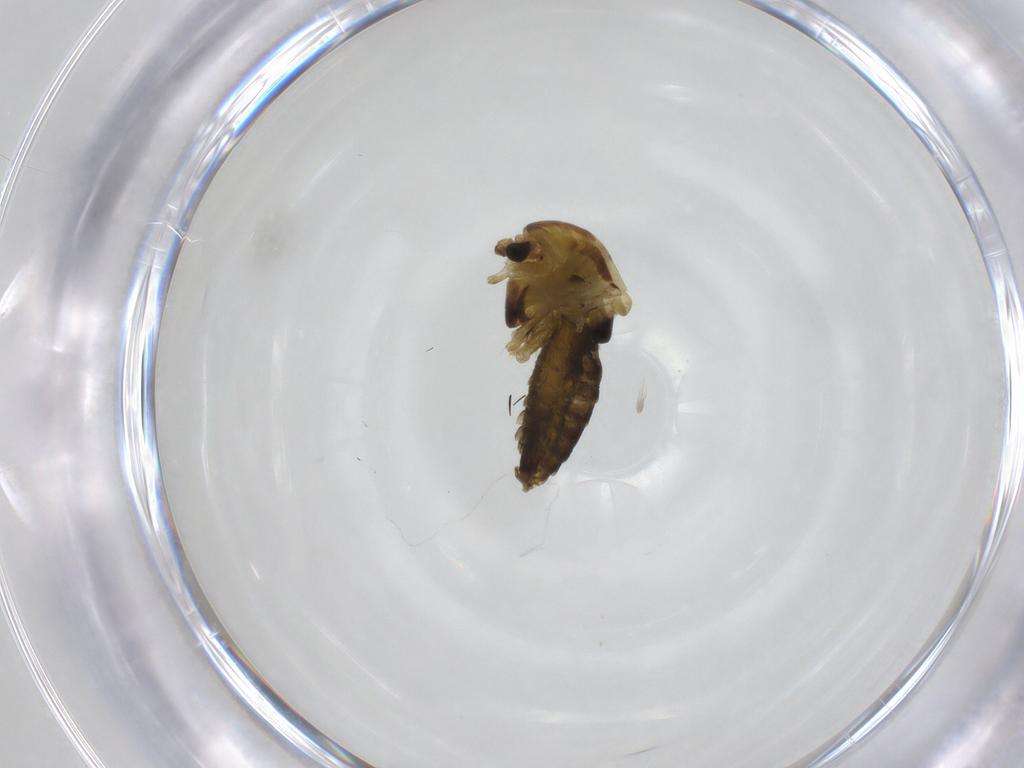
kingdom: Animalia
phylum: Arthropoda
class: Insecta
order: Diptera
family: Chironomidae
